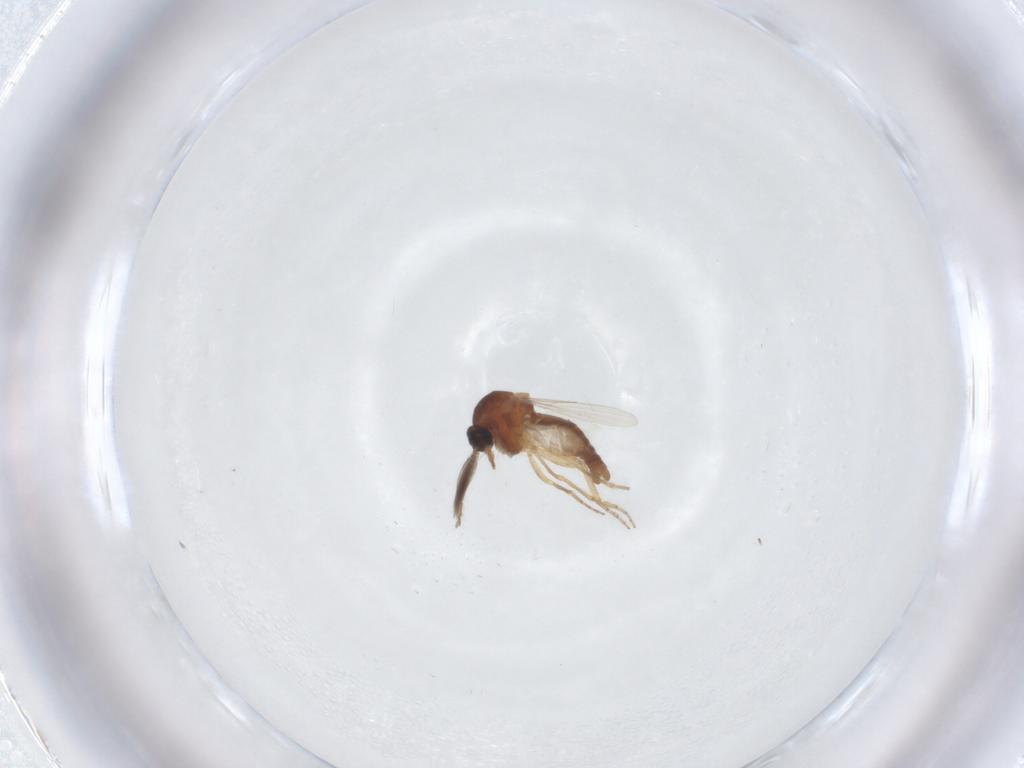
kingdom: Animalia
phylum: Arthropoda
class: Insecta
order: Diptera
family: Ceratopogonidae
